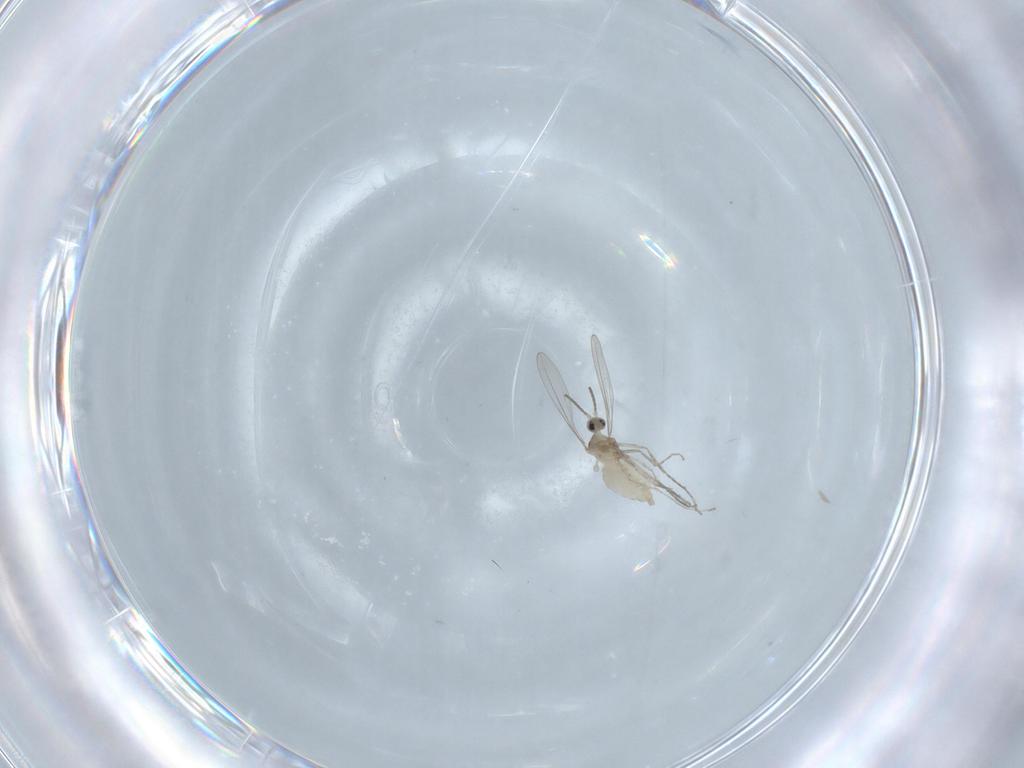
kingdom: Animalia
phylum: Arthropoda
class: Insecta
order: Diptera
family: Cecidomyiidae
